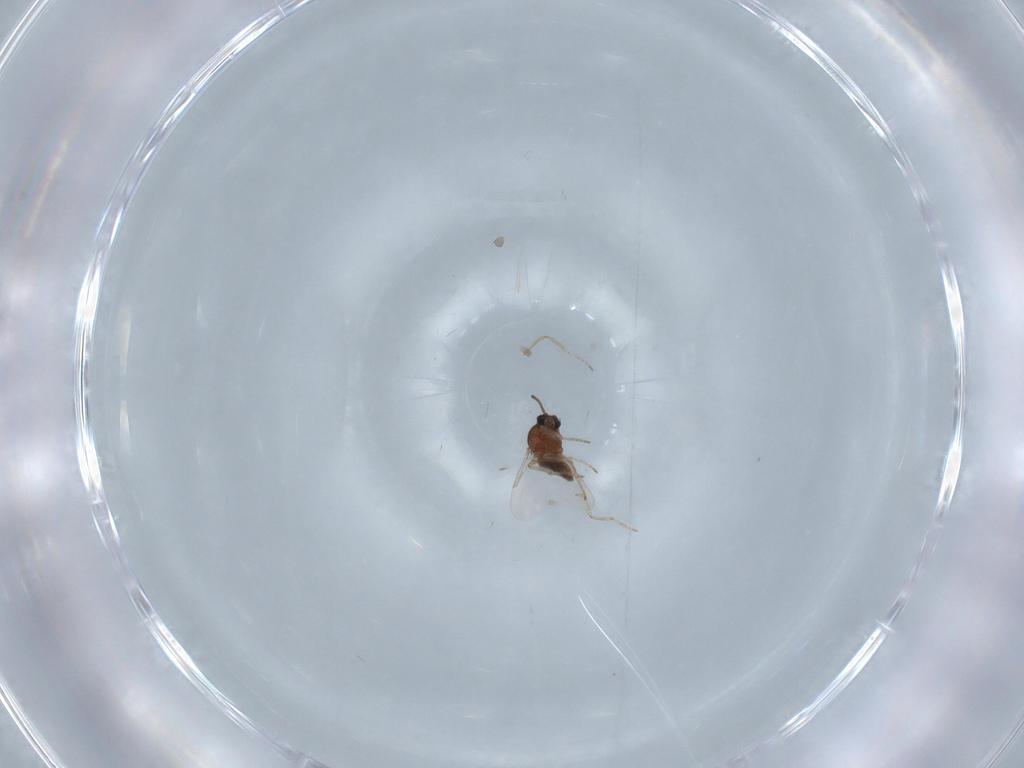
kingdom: Animalia
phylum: Arthropoda
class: Insecta
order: Diptera
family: Ceratopogonidae
